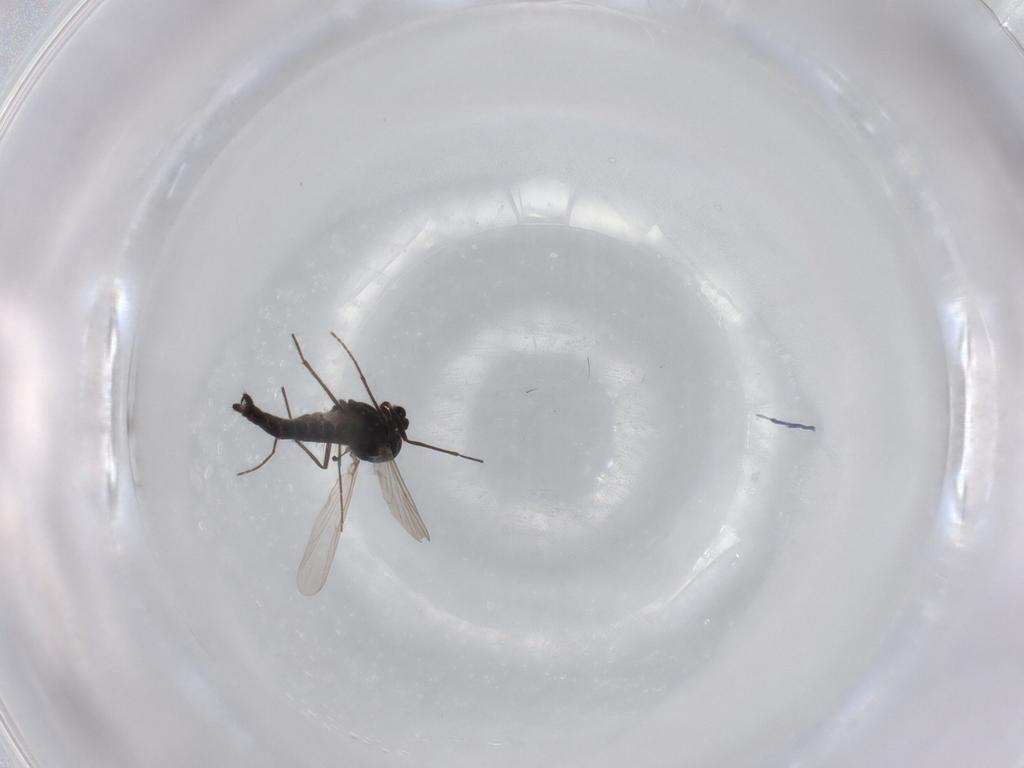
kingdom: Animalia
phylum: Arthropoda
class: Insecta
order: Diptera
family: Chironomidae
